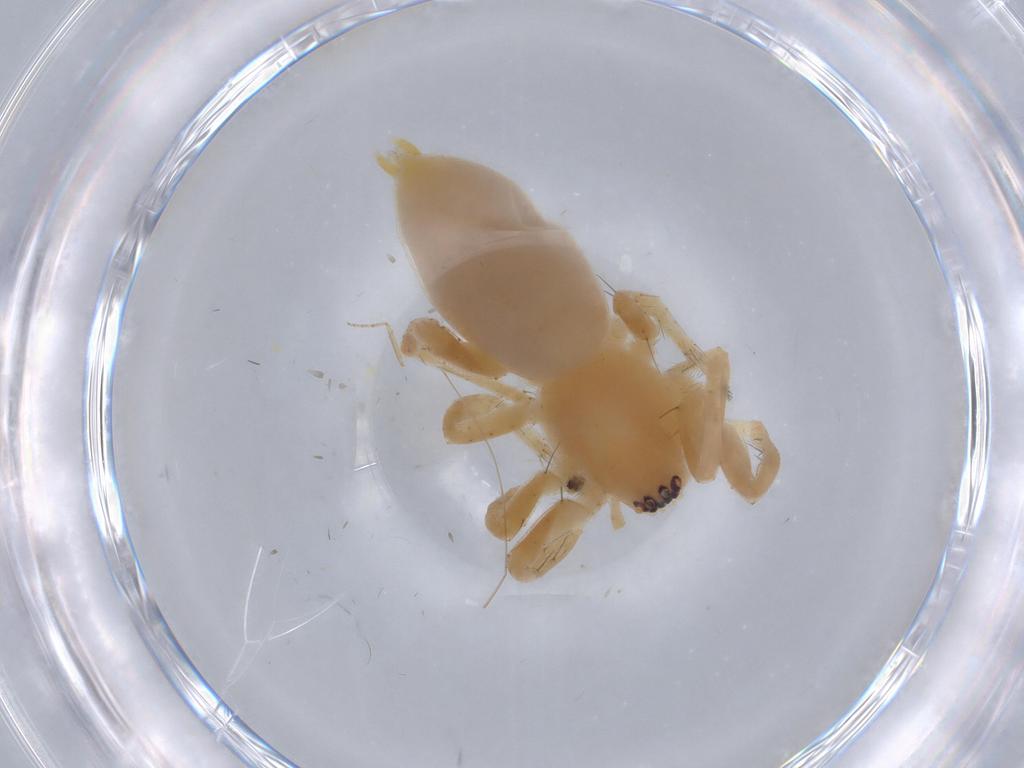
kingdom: Animalia
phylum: Arthropoda
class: Arachnida
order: Araneae
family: Anyphaenidae
